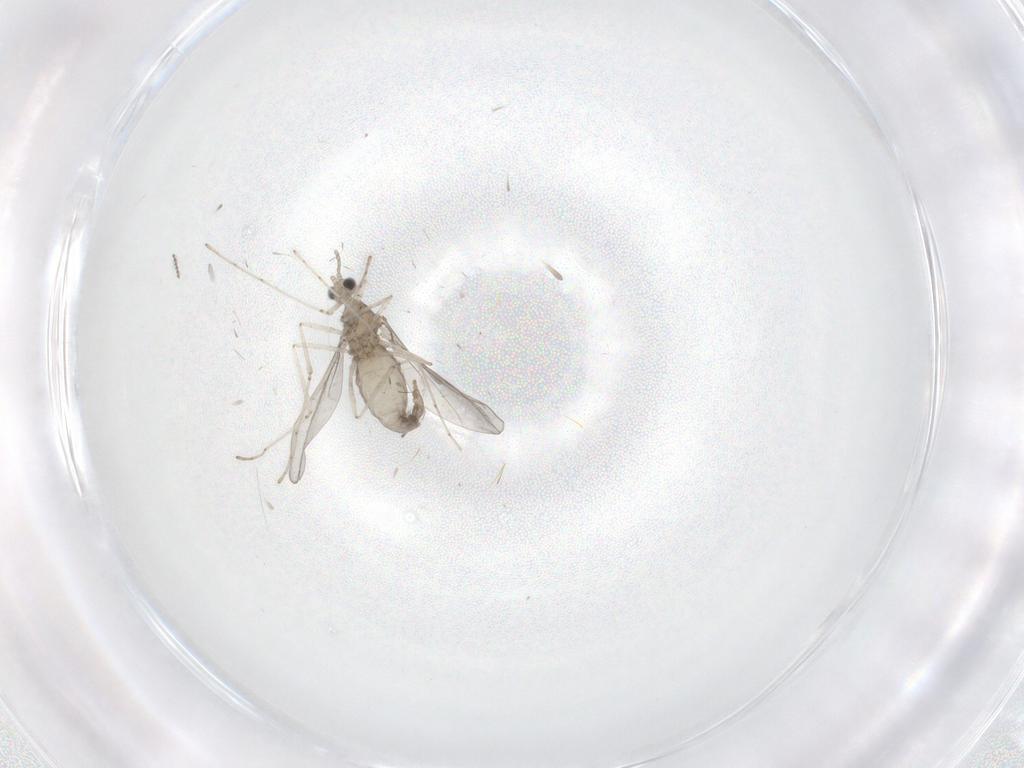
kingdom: Animalia
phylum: Arthropoda
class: Insecta
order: Diptera
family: Cecidomyiidae
